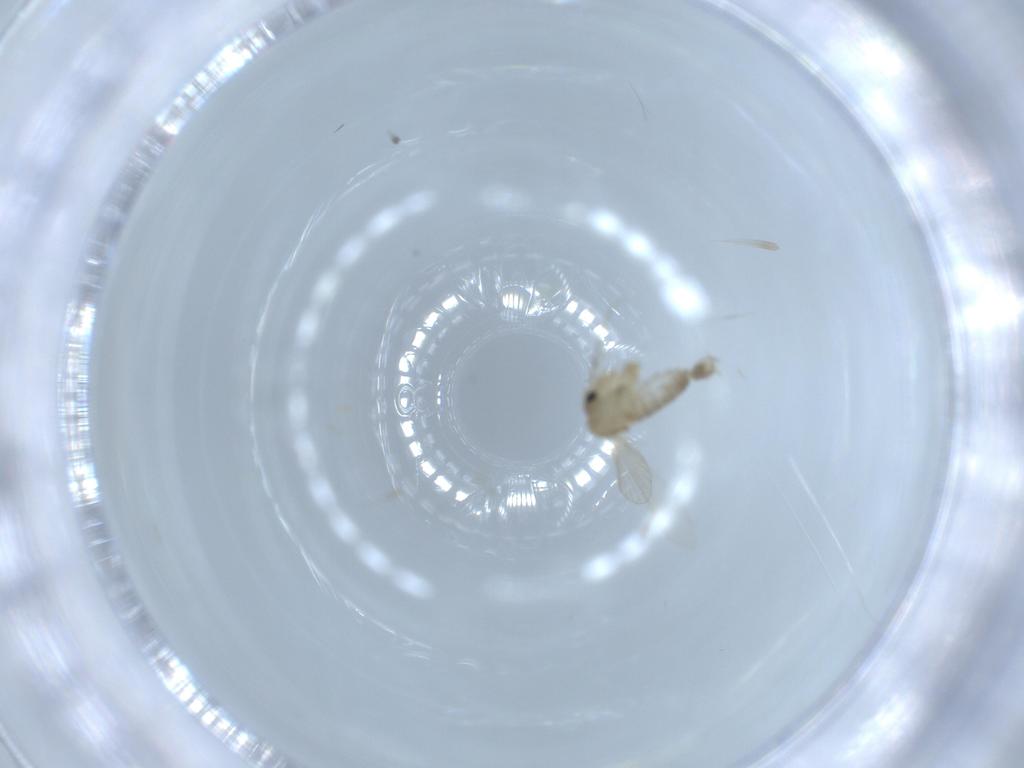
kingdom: Animalia
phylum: Arthropoda
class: Insecta
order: Diptera
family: Psychodidae
